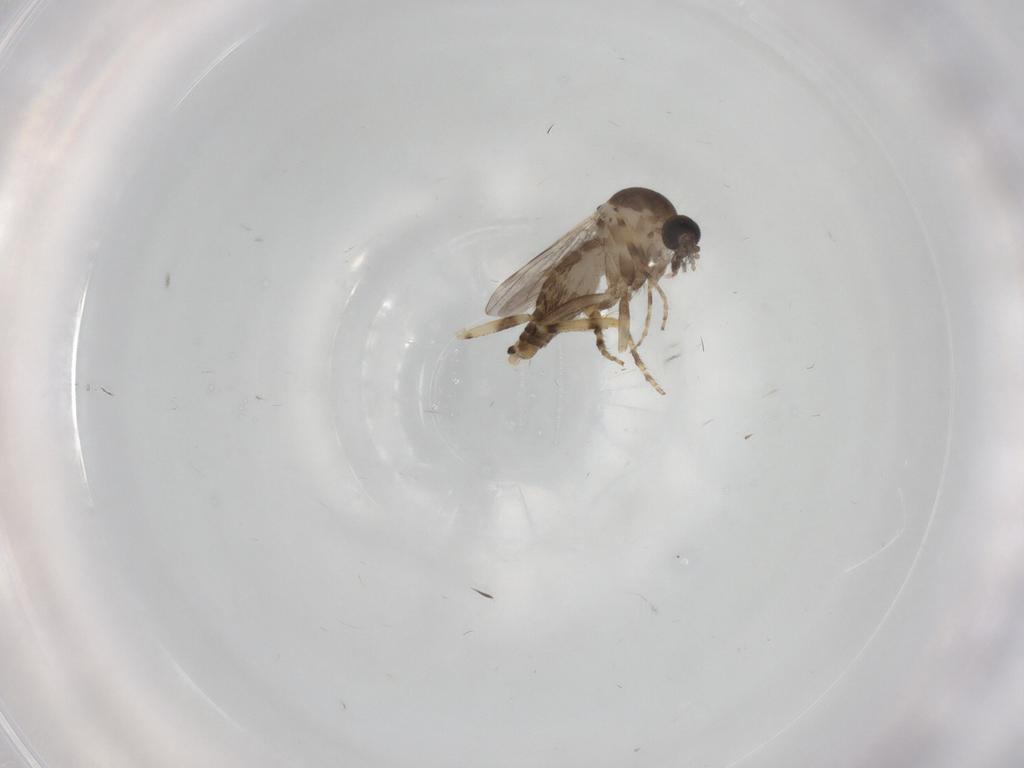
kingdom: Animalia
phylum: Arthropoda
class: Insecta
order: Diptera
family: Ceratopogonidae
